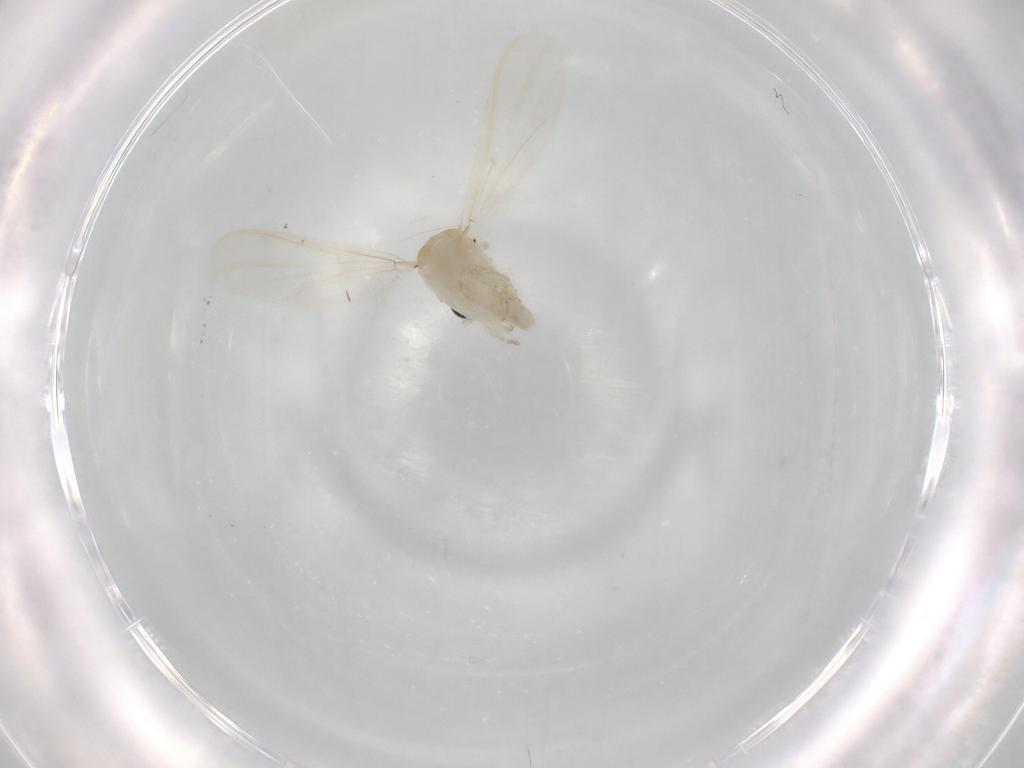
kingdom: Animalia
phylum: Arthropoda
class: Insecta
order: Diptera
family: Chironomidae
